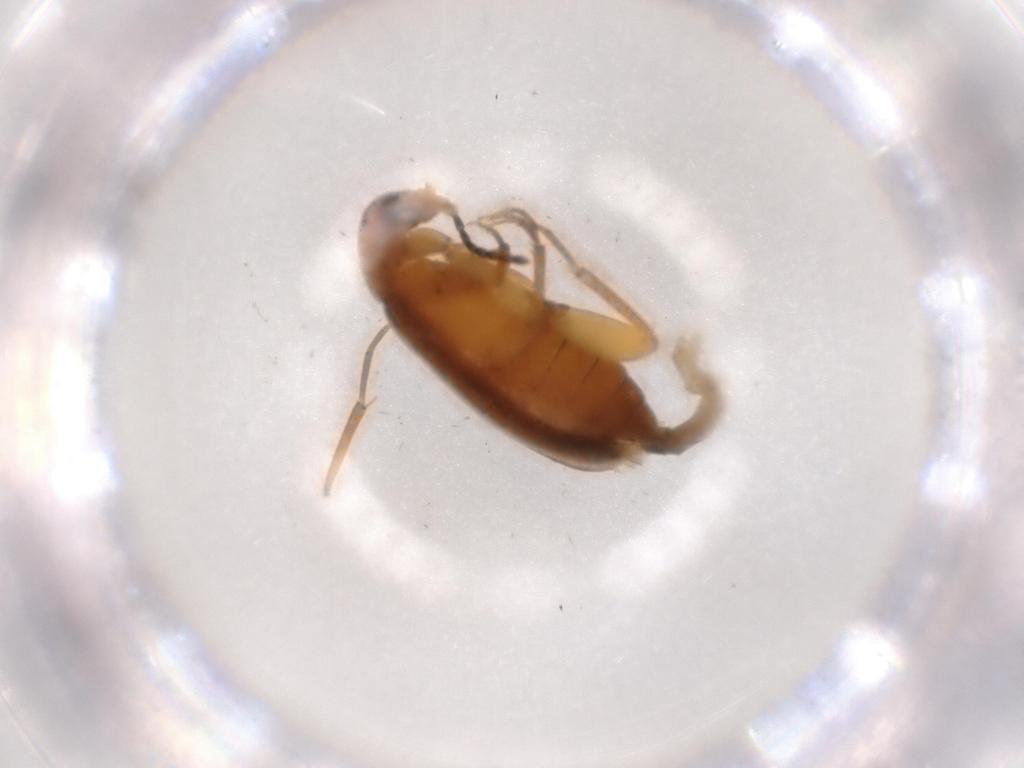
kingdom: Animalia
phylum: Arthropoda
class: Insecta
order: Coleoptera
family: Scraptiidae
